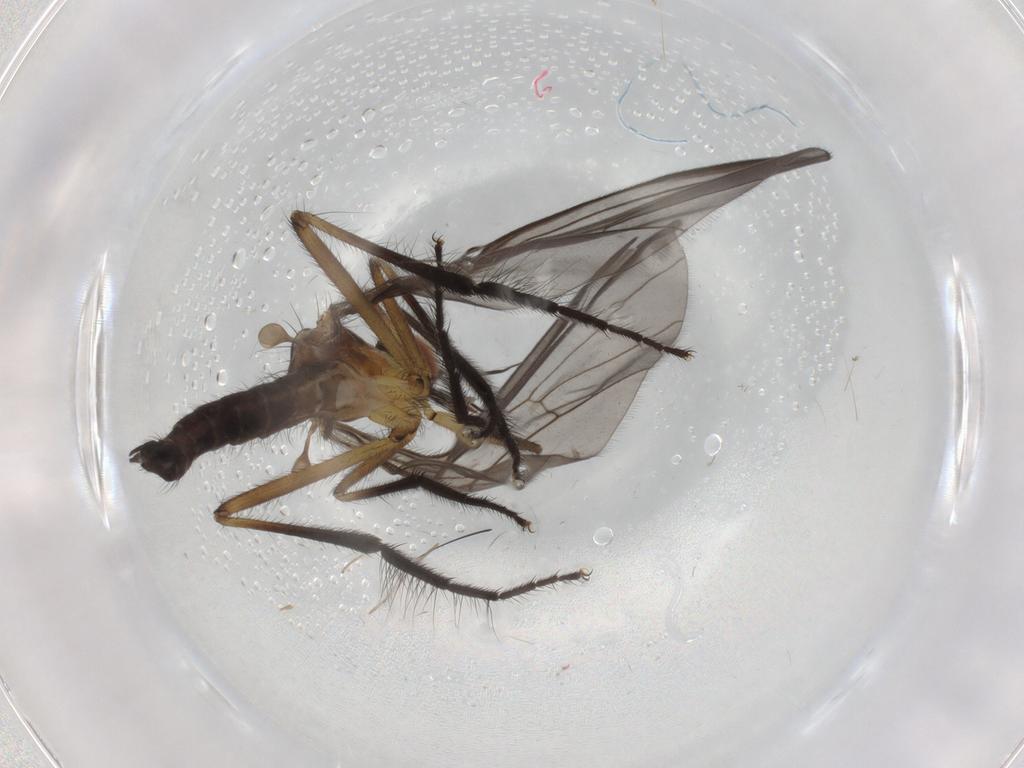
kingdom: Animalia
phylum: Arthropoda
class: Insecta
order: Diptera
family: Empididae
